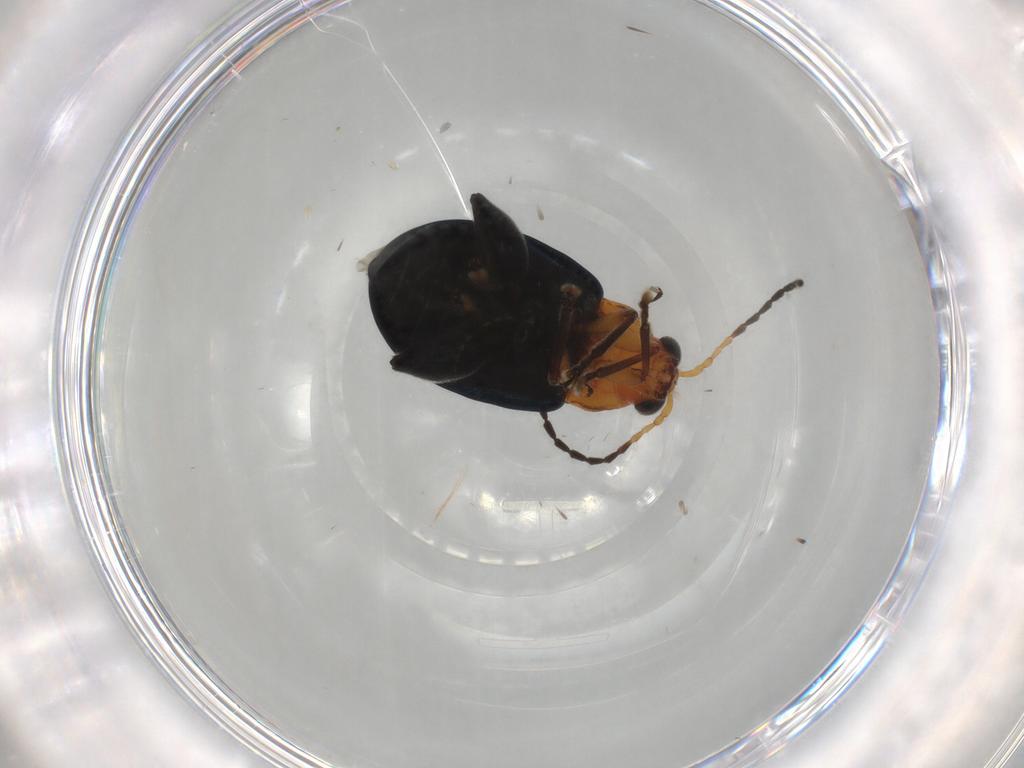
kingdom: Animalia
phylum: Arthropoda
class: Insecta
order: Coleoptera
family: Chrysomelidae
